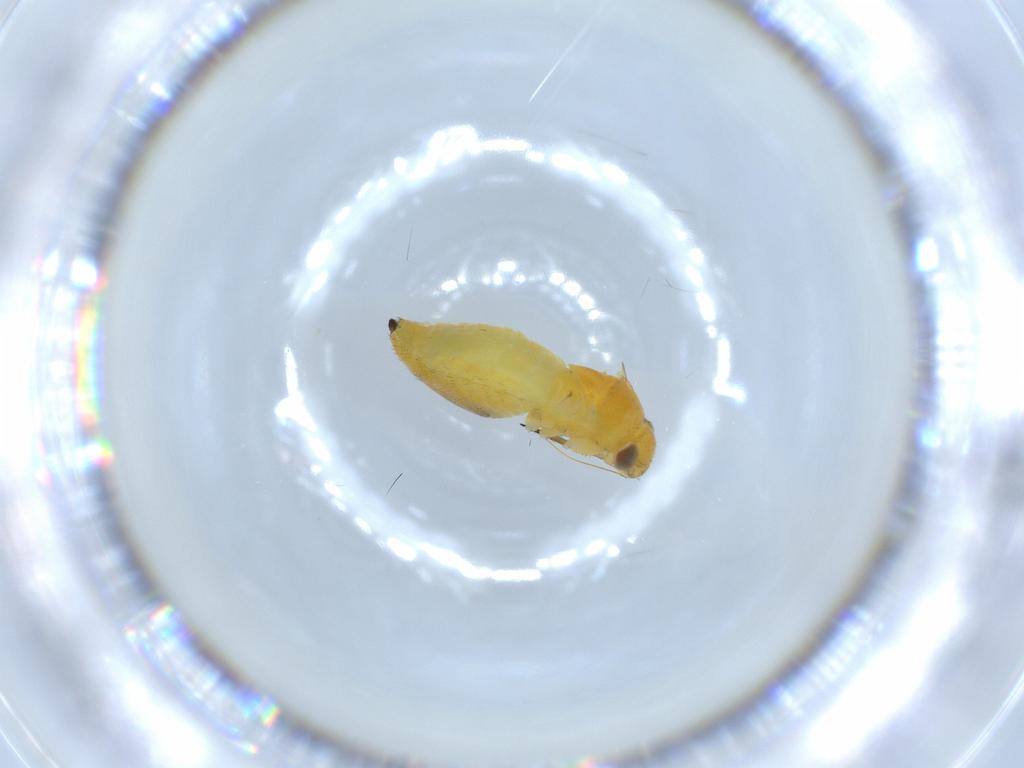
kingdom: Animalia
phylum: Arthropoda
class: Insecta
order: Hemiptera
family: Miridae
